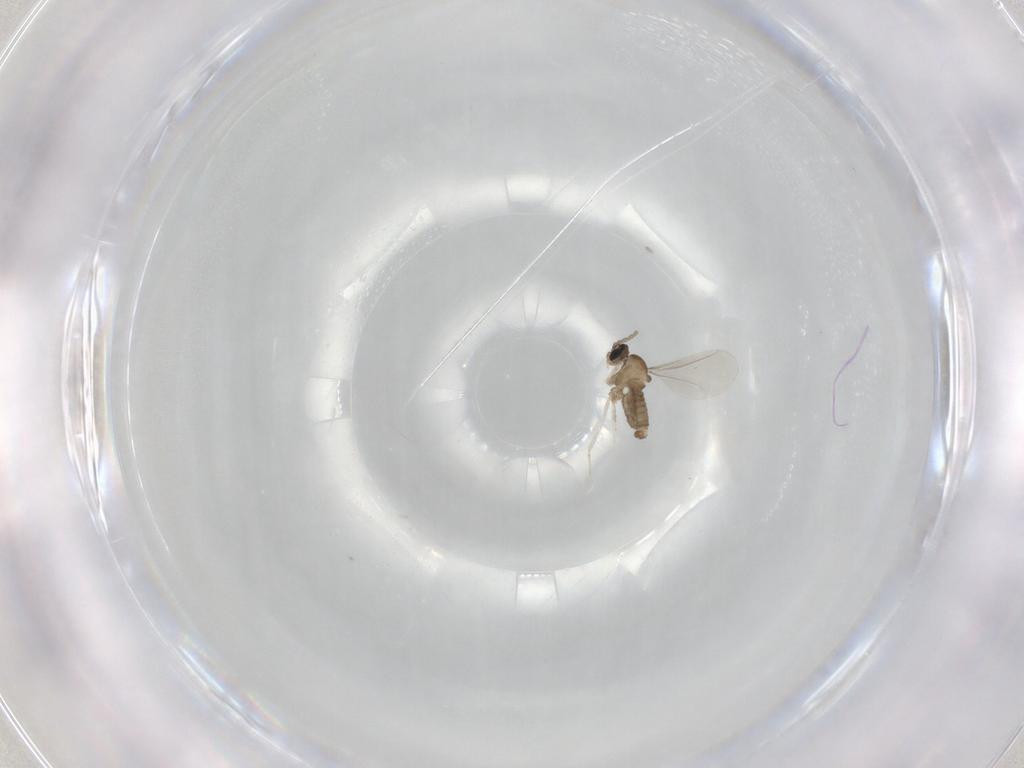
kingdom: Animalia
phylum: Arthropoda
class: Insecta
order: Diptera
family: Cecidomyiidae
